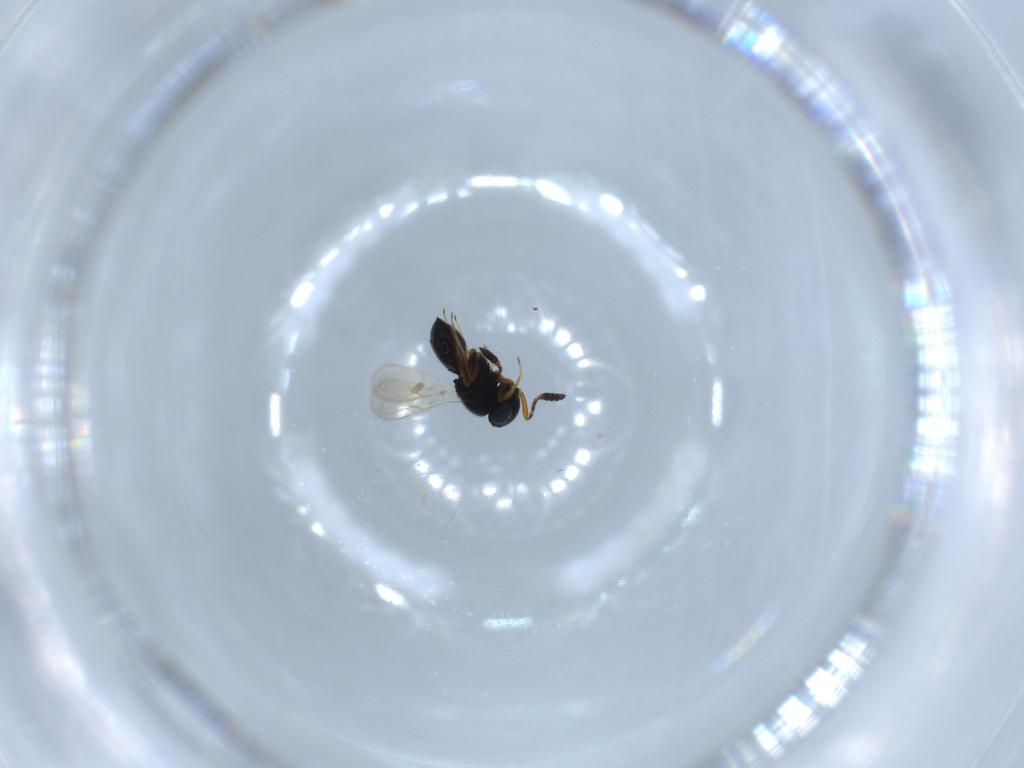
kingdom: Animalia
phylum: Arthropoda
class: Insecta
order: Hymenoptera
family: Scelionidae
